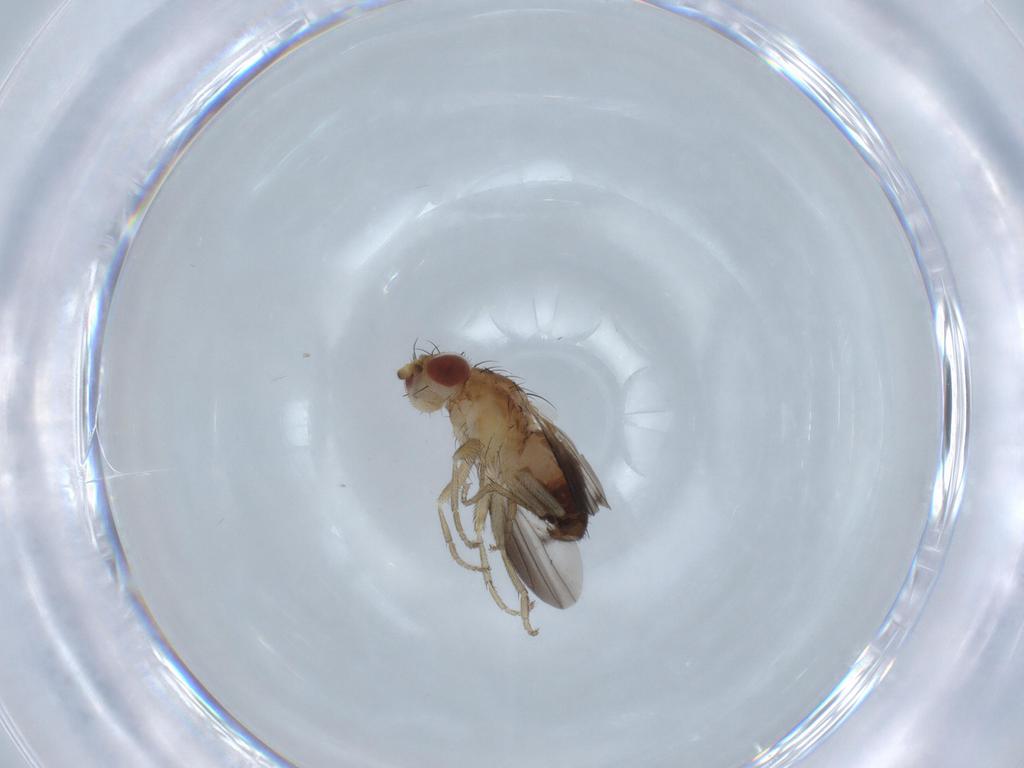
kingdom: Animalia
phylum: Arthropoda
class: Insecta
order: Diptera
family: Heleomyzidae
